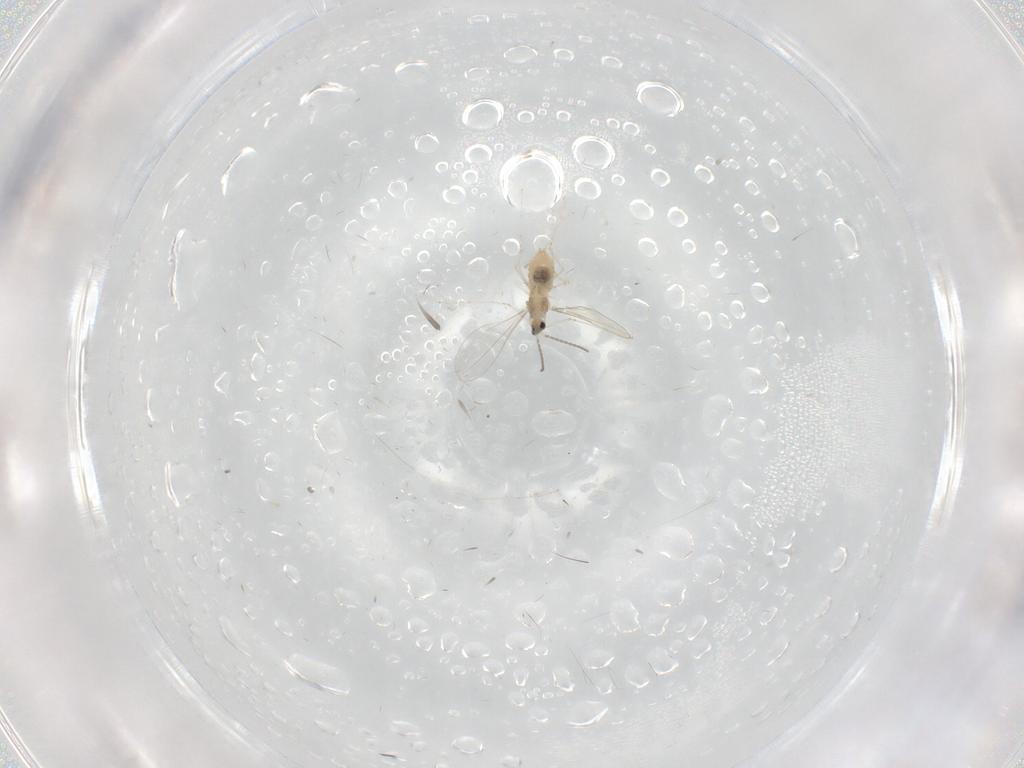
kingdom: Animalia
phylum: Arthropoda
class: Insecta
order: Diptera
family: Cecidomyiidae
